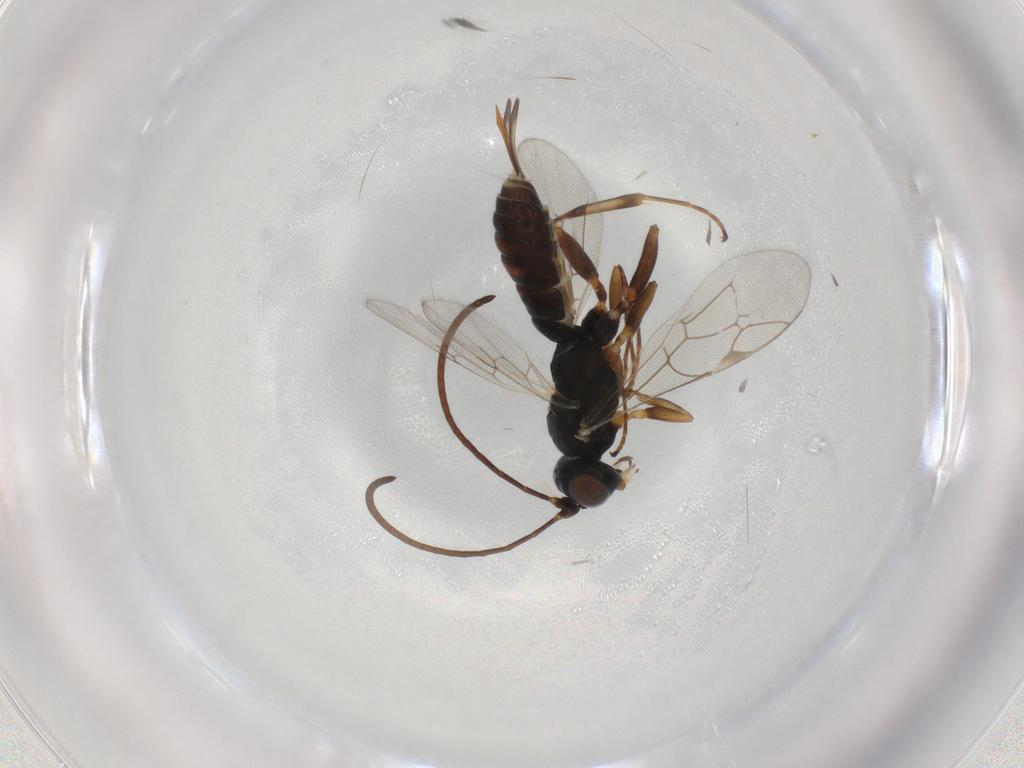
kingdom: Animalia
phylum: Arthropoda
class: Insecta
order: Hymenoptera
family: Ichneumonidae
